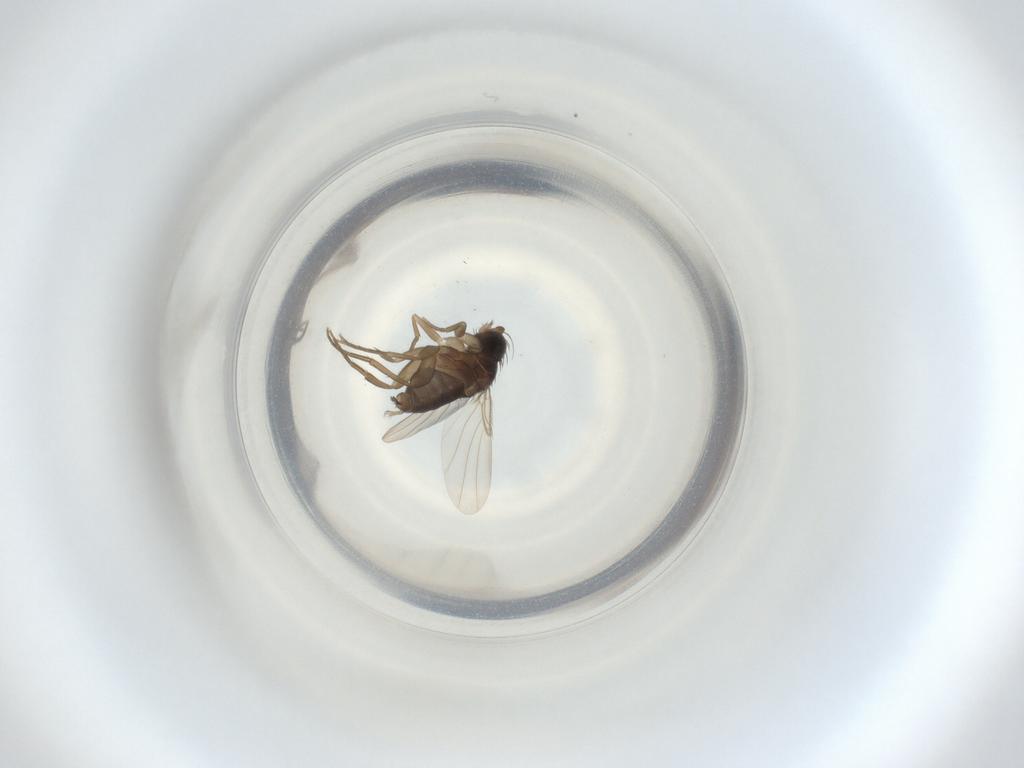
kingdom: Animalia
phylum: Arthropoda
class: Insecta
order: Diptera
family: Phoridae
